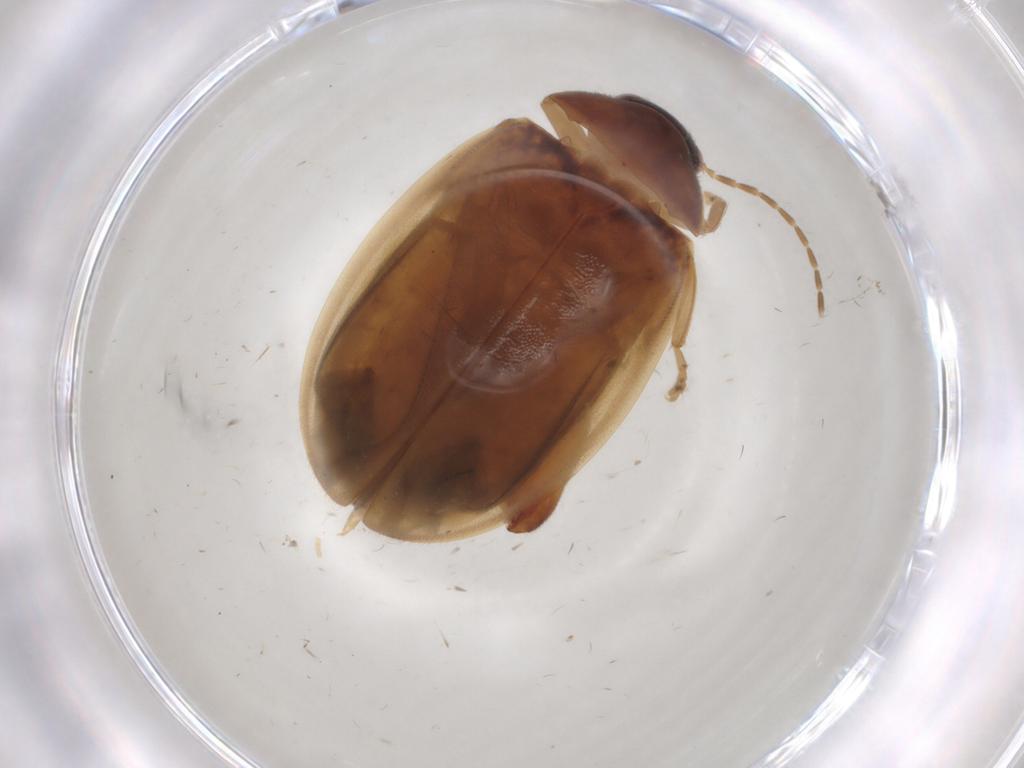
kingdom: Animalia
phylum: Arthropoda
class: Insecta
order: Coleoptera
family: Scirtidae
